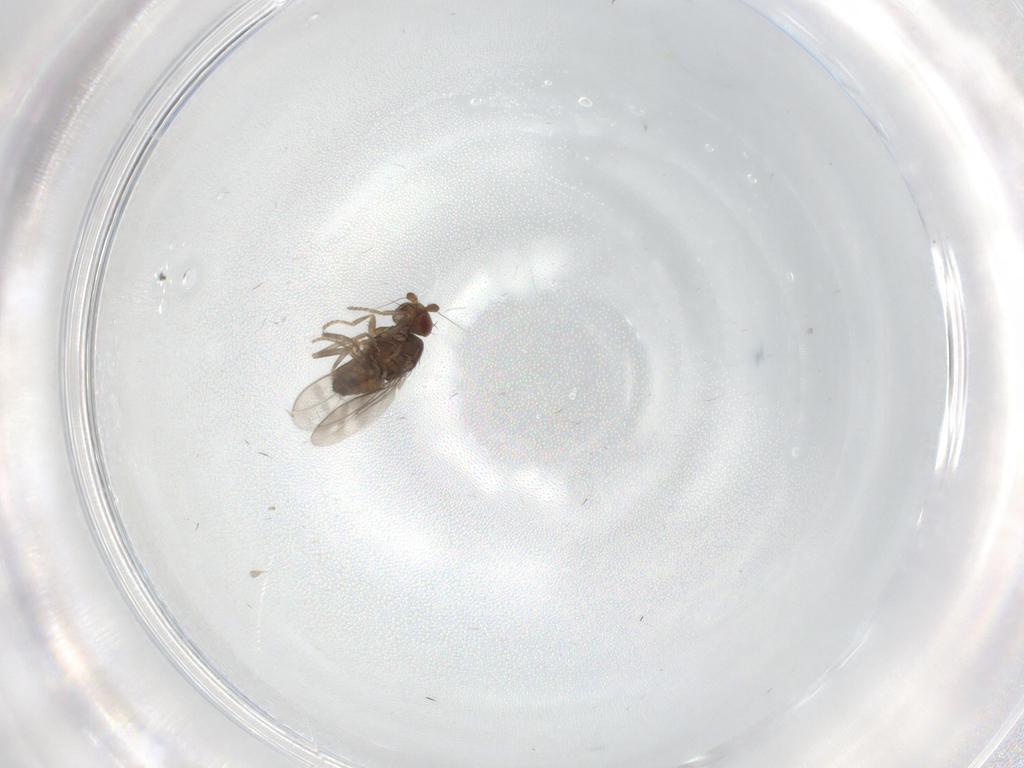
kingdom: Animalia
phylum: Arthropoda
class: Insecta
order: Diptera
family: Sphaeroceridae
